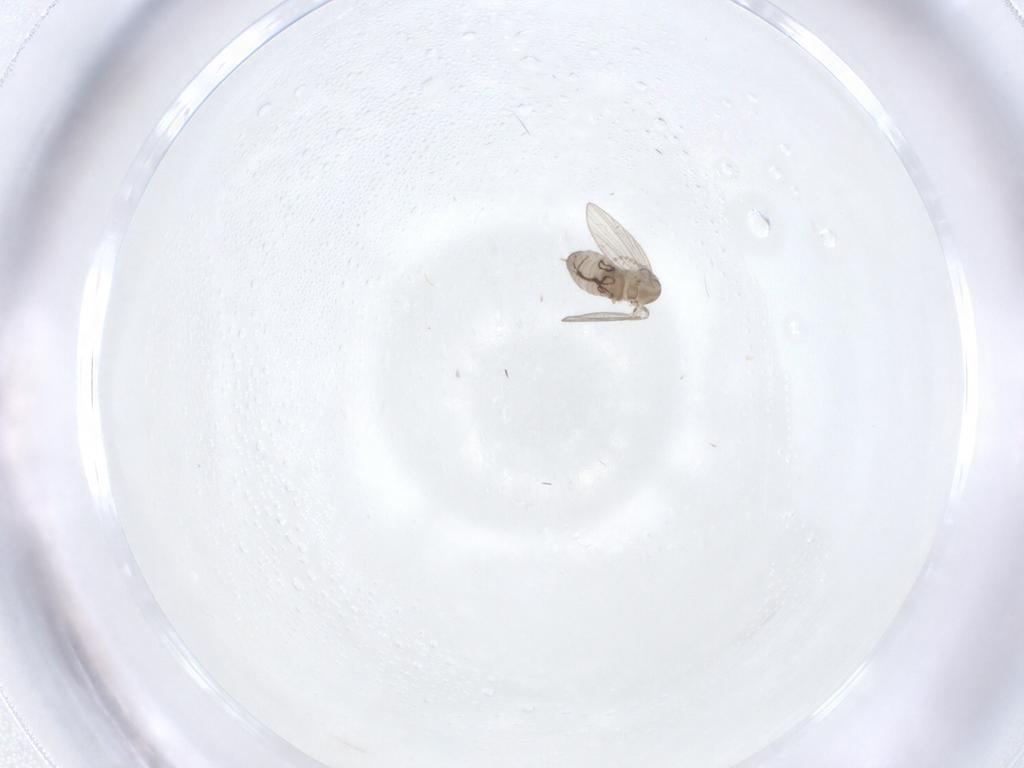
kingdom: Animalia
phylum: Arthropoda
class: Insecta
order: Diptera
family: Psychodidae
